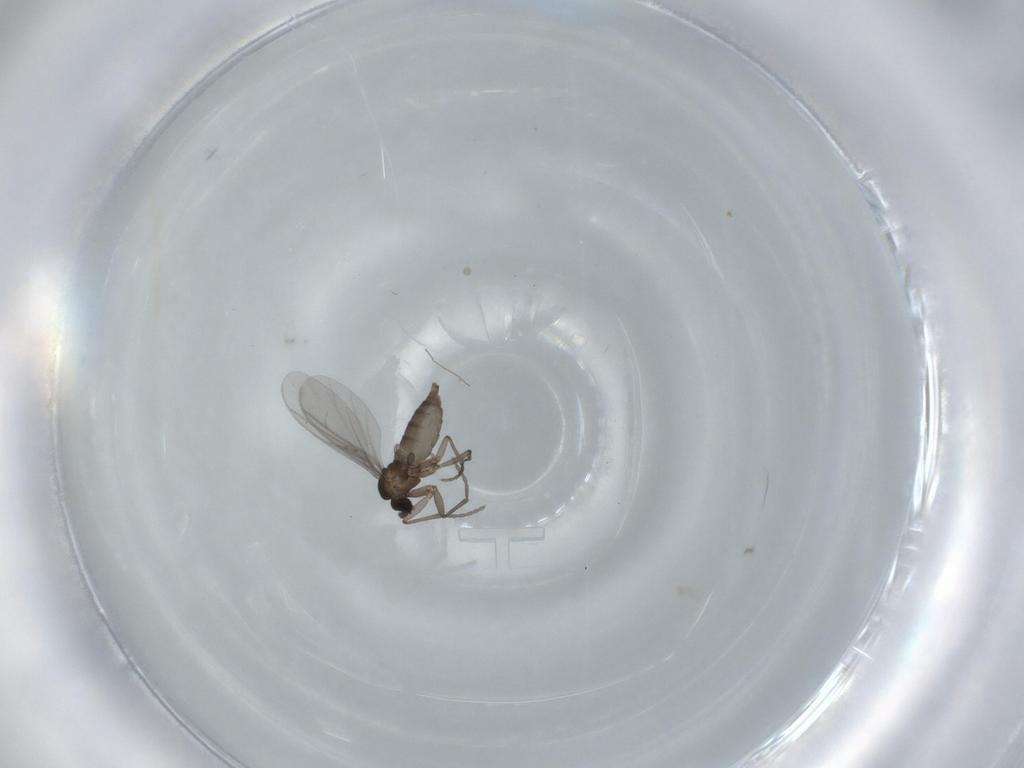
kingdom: Animalia
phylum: Arthropoda
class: Insecta
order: Diptera
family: Sciaridae
